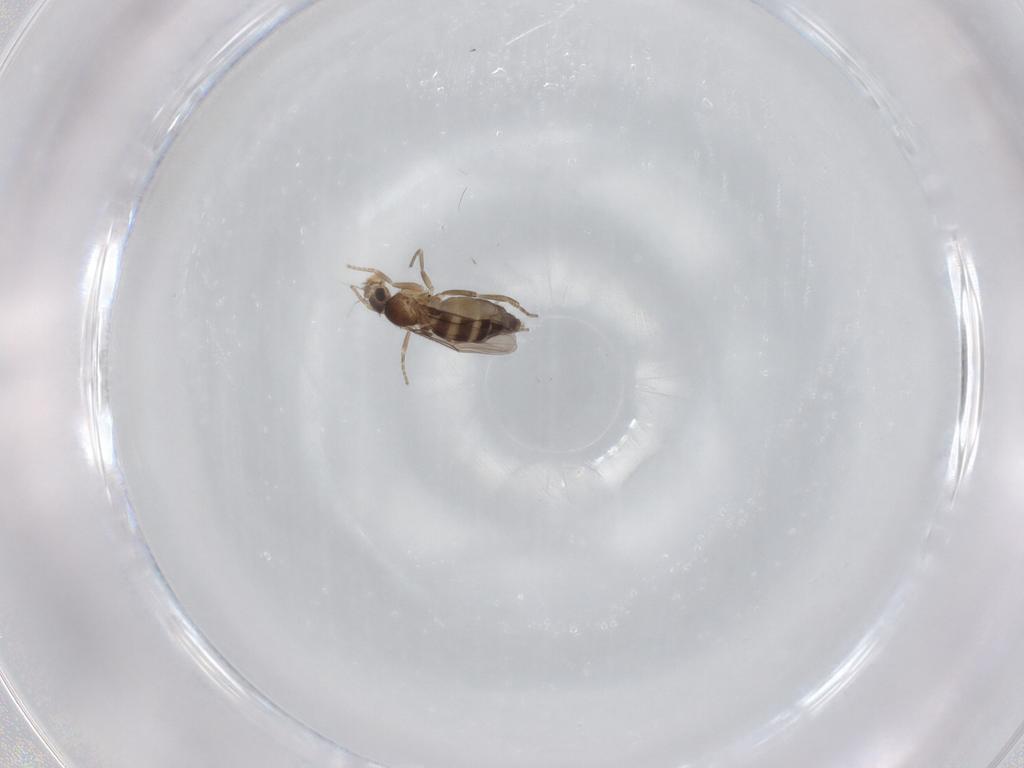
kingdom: Animalia
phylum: Arthropoda
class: Insecta
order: Diptera
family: Phoridae
